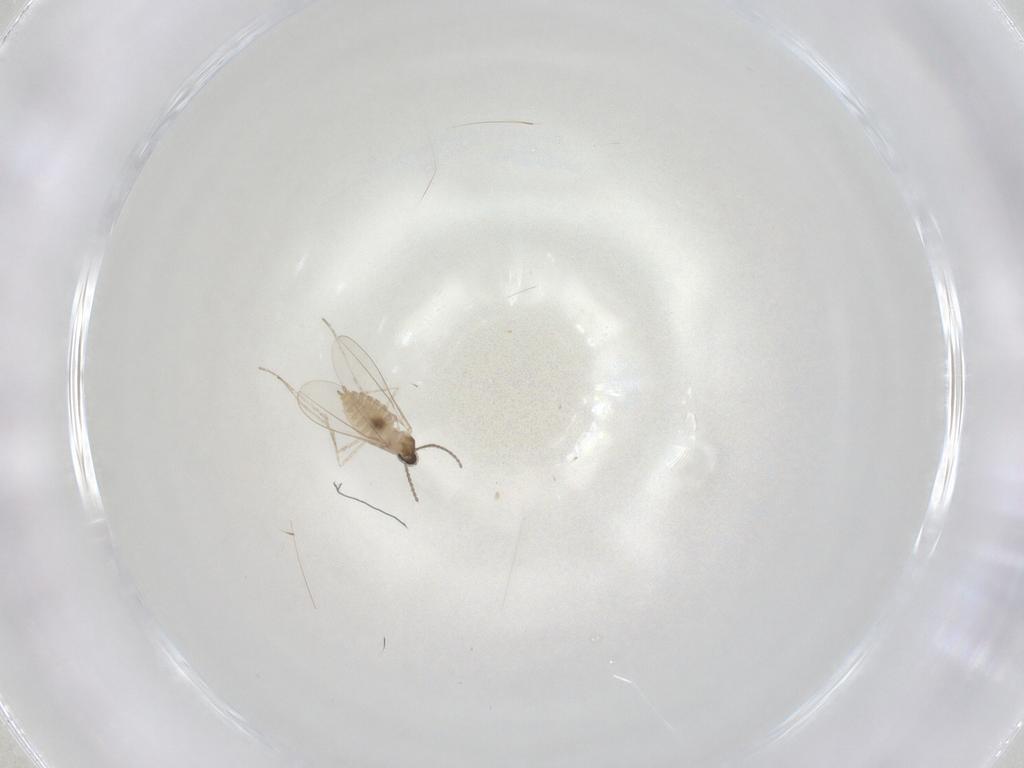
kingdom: Animalia
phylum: Arthropoda
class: Insecta
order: Diptera
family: Cecidomyiidae
